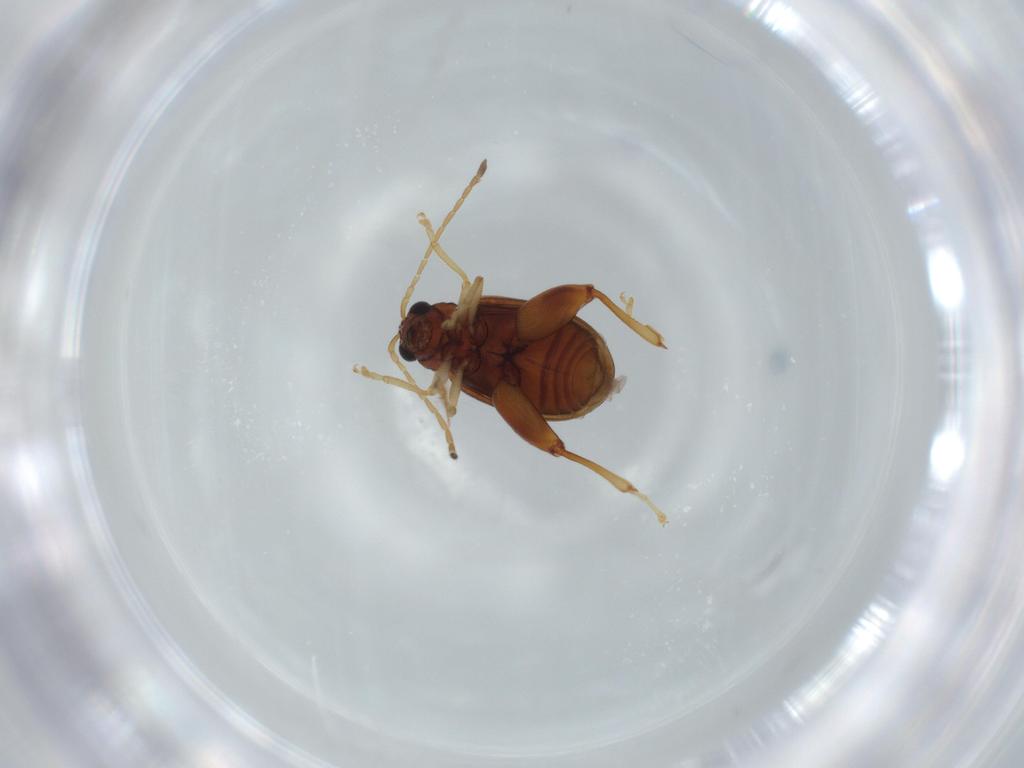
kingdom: Animalia
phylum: Arthropoda
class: Insecta
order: Coleoptera
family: Chrysomelidae
